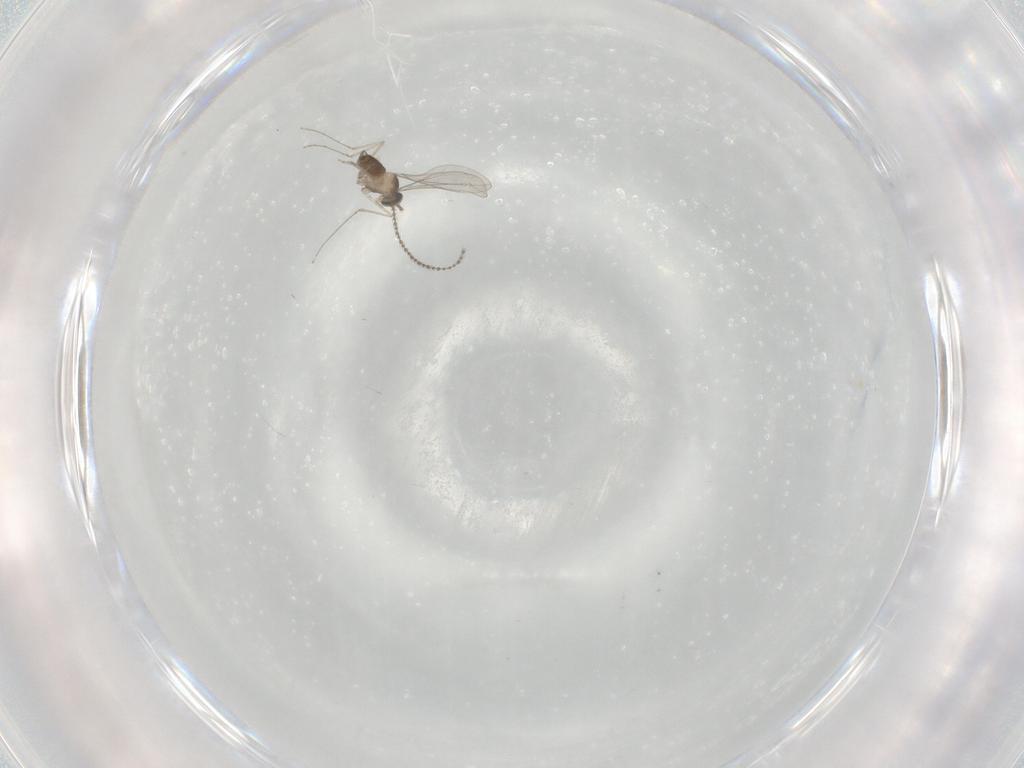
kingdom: Animalia
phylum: Arthropoda
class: Insecta
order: Diptera
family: Cecidomyiidae
